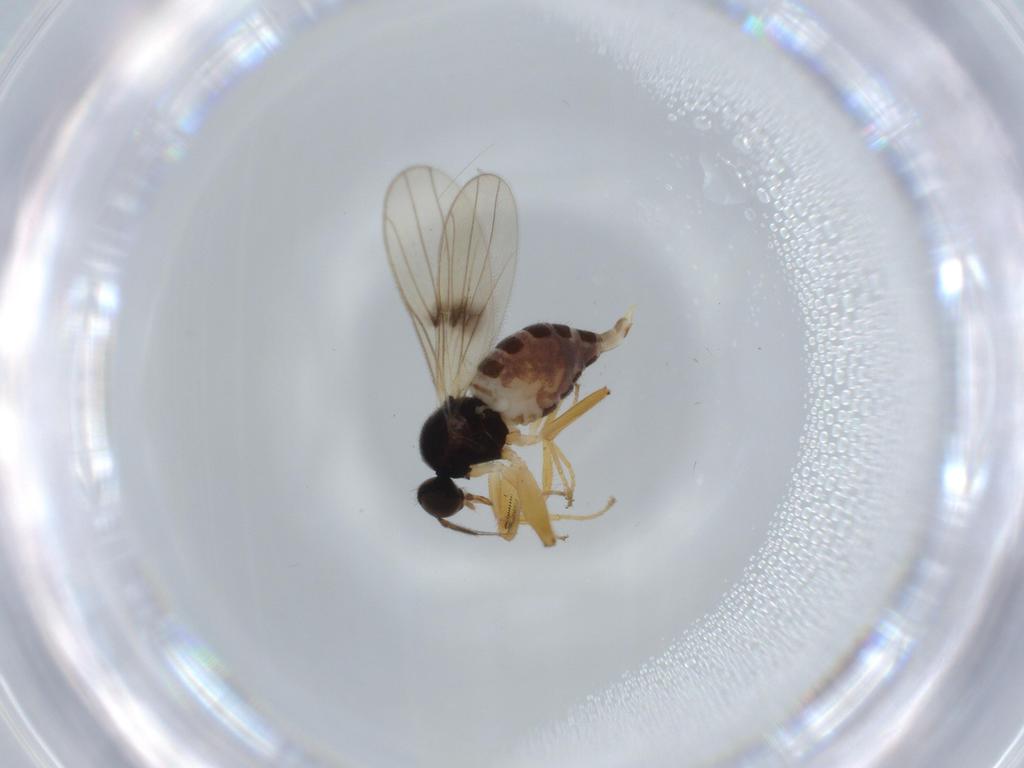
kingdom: Animalia
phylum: Arthropoda
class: Insecta
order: Diptera
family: Hybotidae
